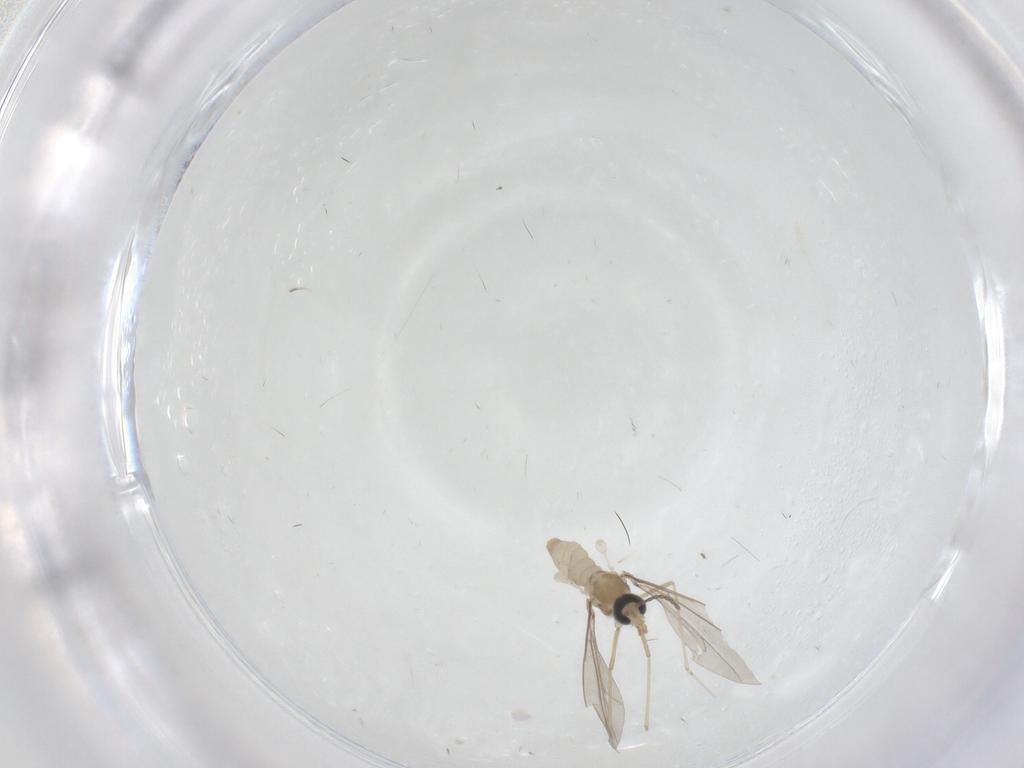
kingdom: Animalia
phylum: Arthropoda
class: Insecta
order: Diptera
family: Cecidomyiidae
